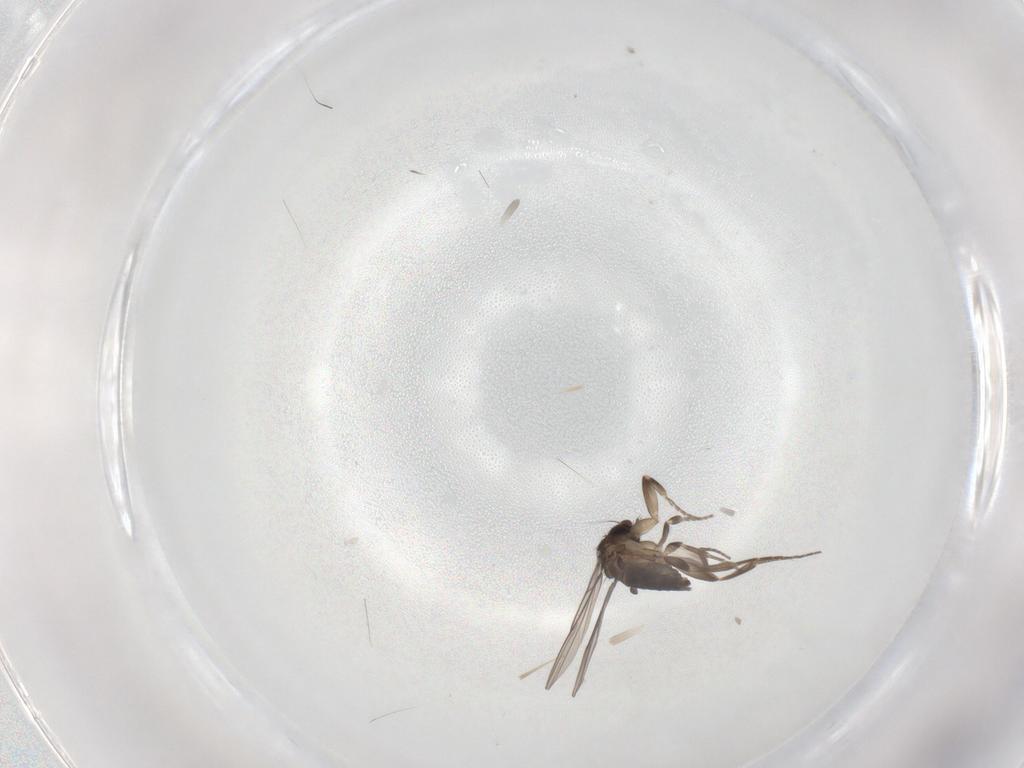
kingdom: Animalia
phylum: Arthropoda
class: Insecta
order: Diptera
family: Phoridae
